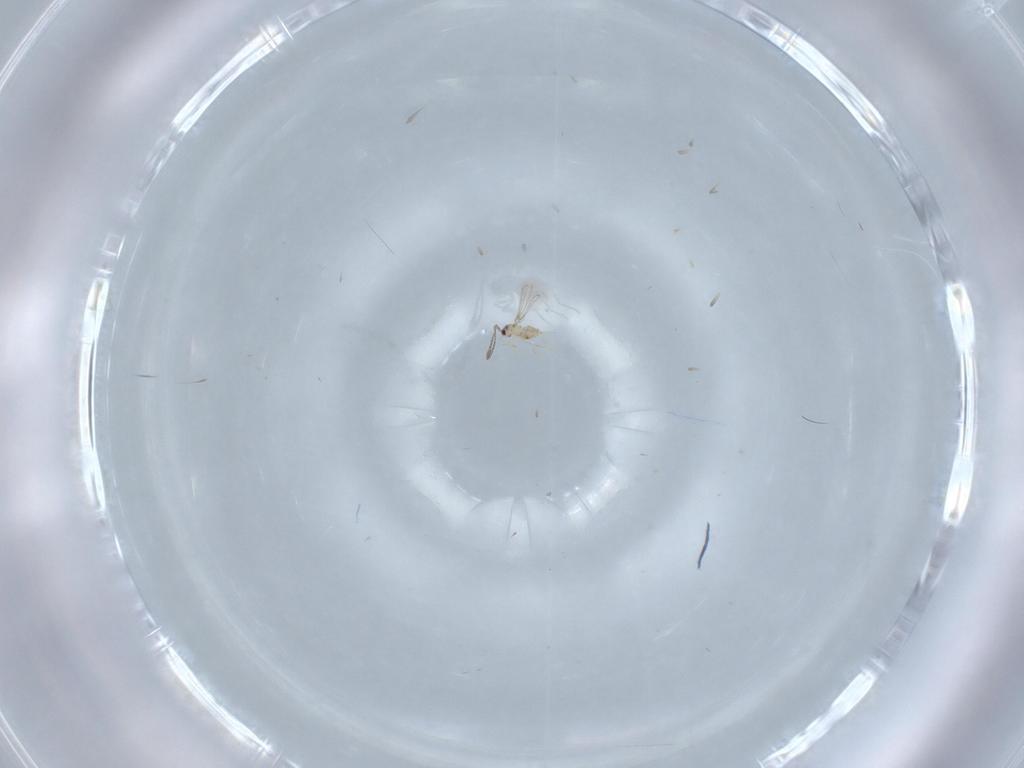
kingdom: Animalia
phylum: Arthropoda
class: Insecta
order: Hymenoptera
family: Mymaridae
